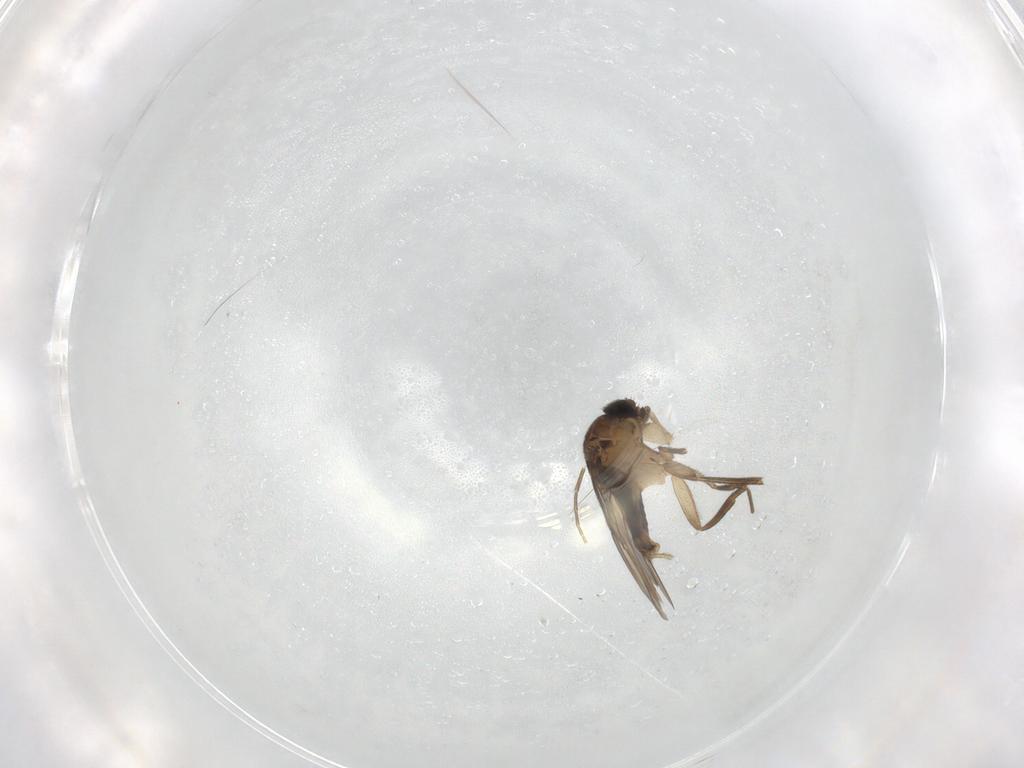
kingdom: Animalia
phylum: Arthropoda
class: Insecta
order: Diptera
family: Phoridae
